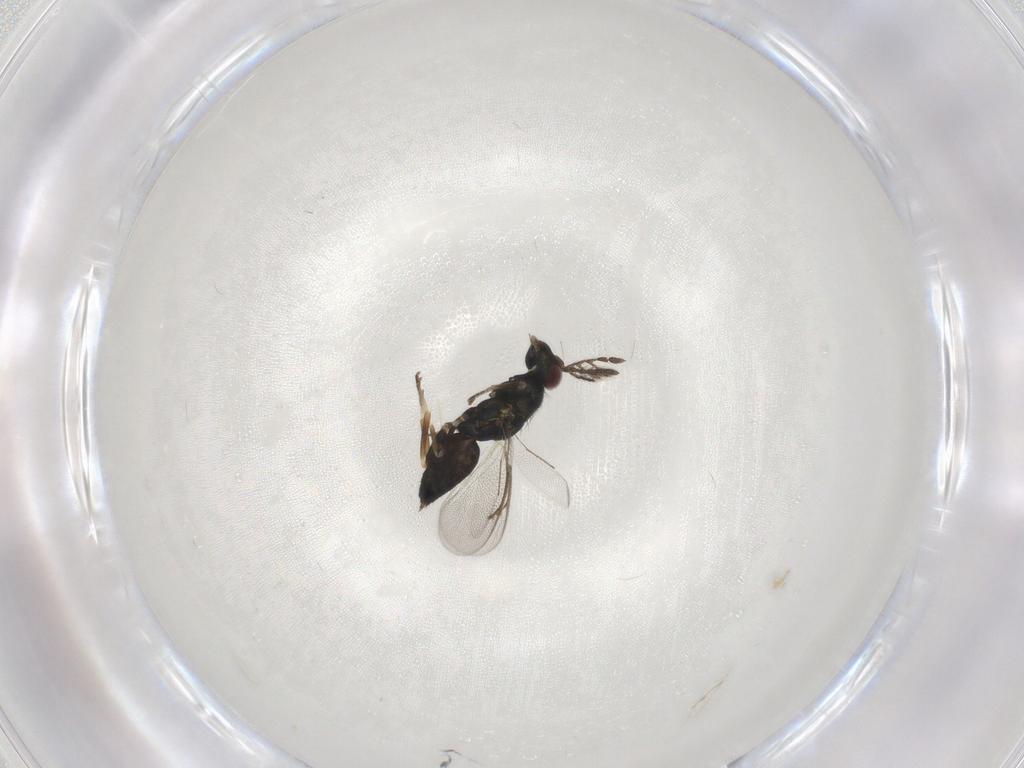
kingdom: Animalia
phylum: Arthropoda
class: Insecta
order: Hymenoptera
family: Eulophidae
